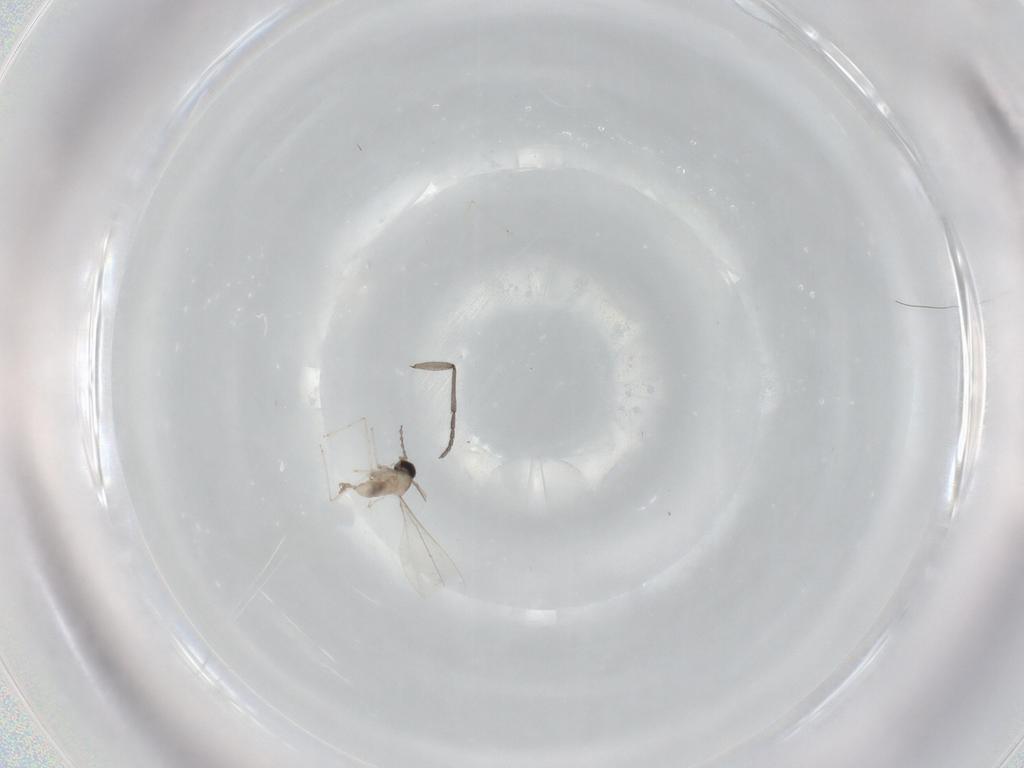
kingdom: Animalia
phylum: Arthropoda
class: Insecta
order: Diptera
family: Sciaridae
